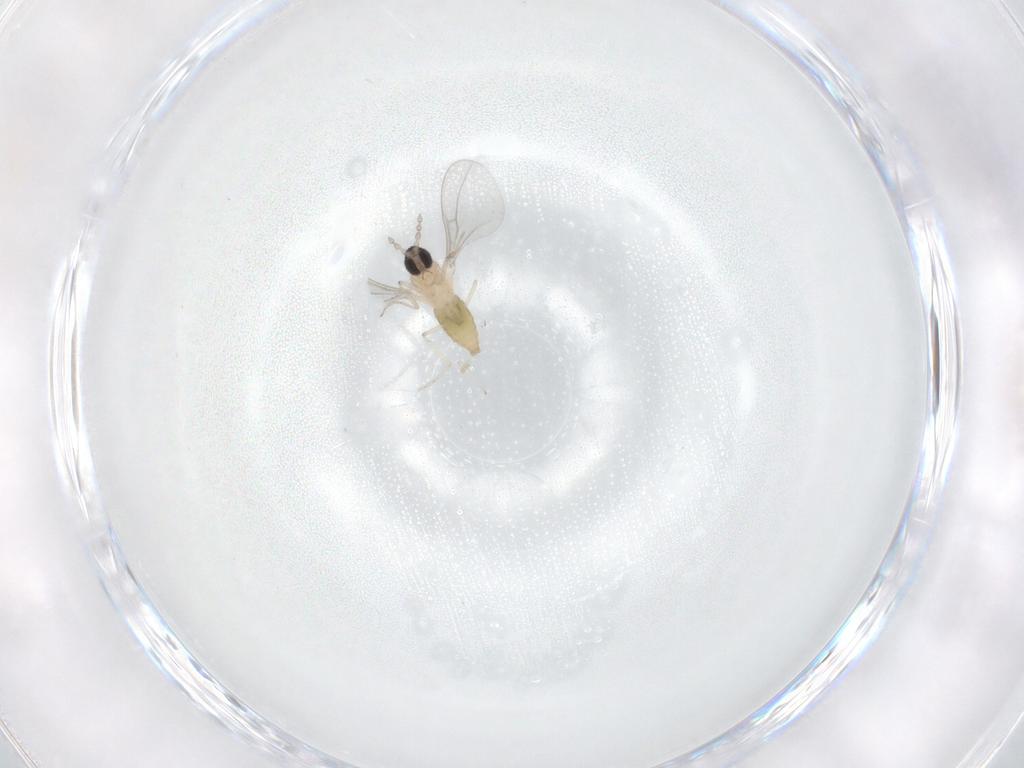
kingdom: Animalia
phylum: Arthropoda
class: Insecta
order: Diptera
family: Cecidomyiidae
